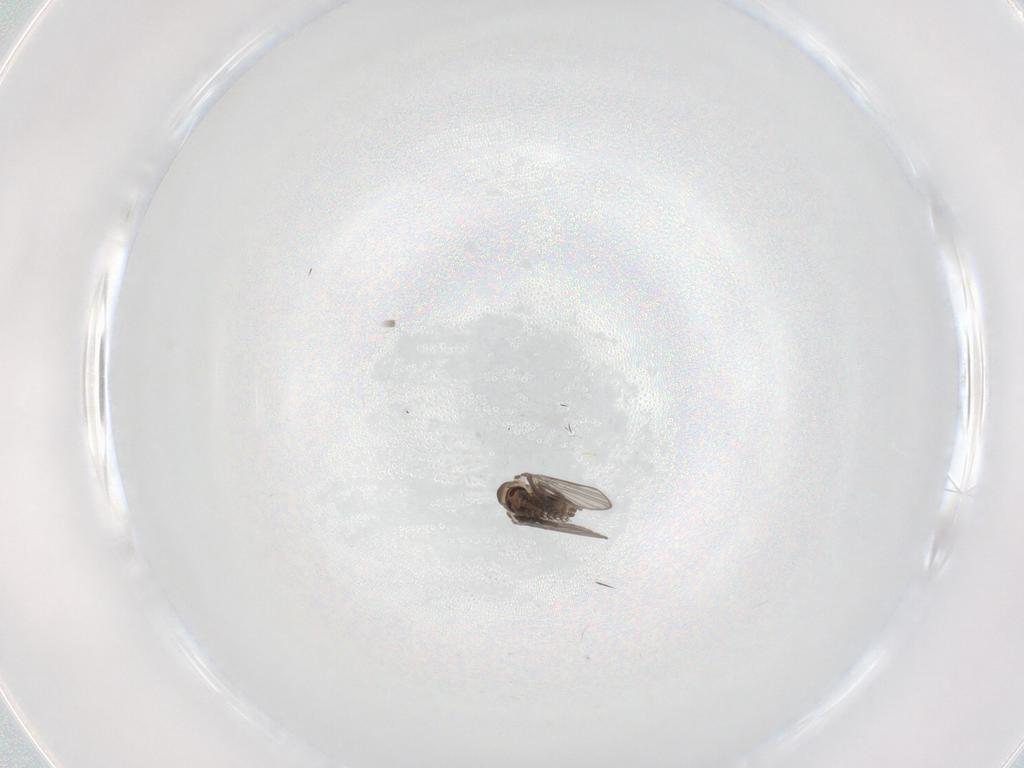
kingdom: Animalia
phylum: Arthropoda
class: Insecta
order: Diptera
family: Psychodidae
